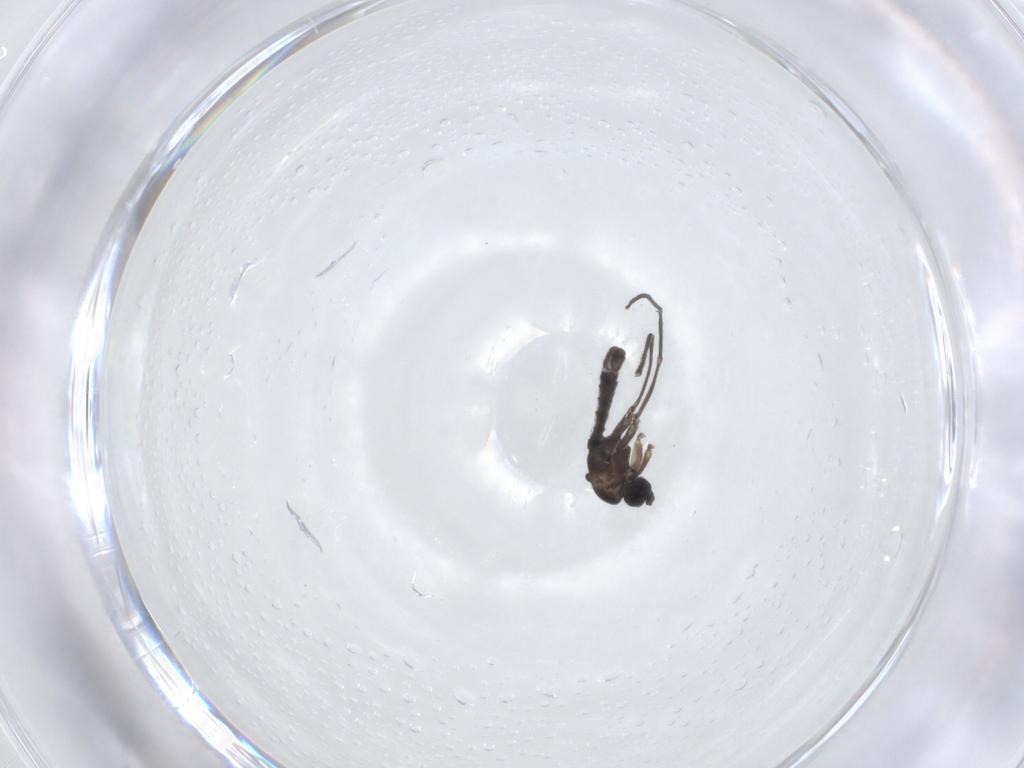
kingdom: Animalia
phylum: Arthropoda
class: Insecta
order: Diptera
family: Sciaridae
